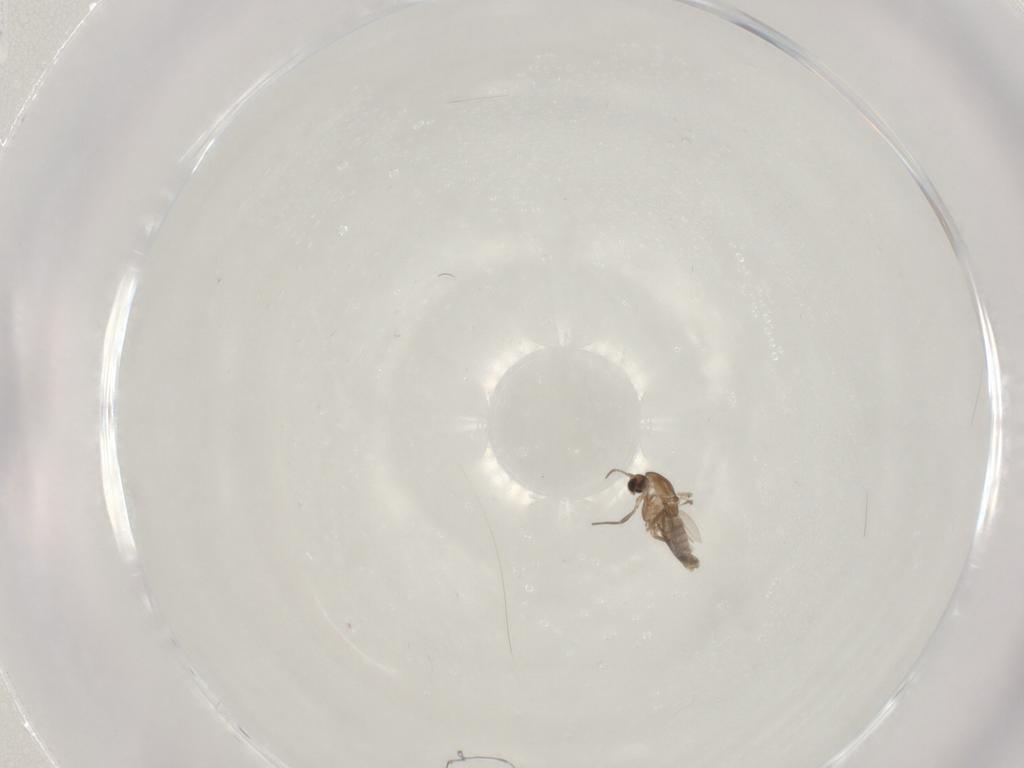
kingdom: Animalia
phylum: Arthropoda
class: Insecta
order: Diptera
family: Chironomidae
